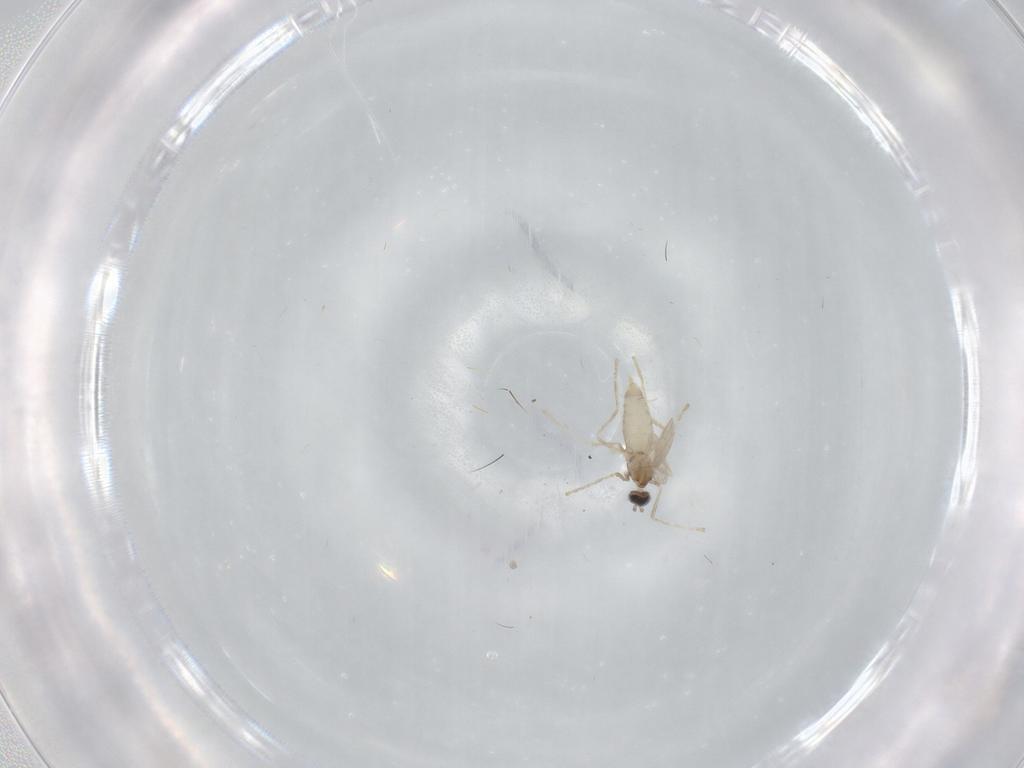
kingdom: Animalia
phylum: Arthropoda
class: Insecta
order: Diptera
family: Cecidomyiidae
